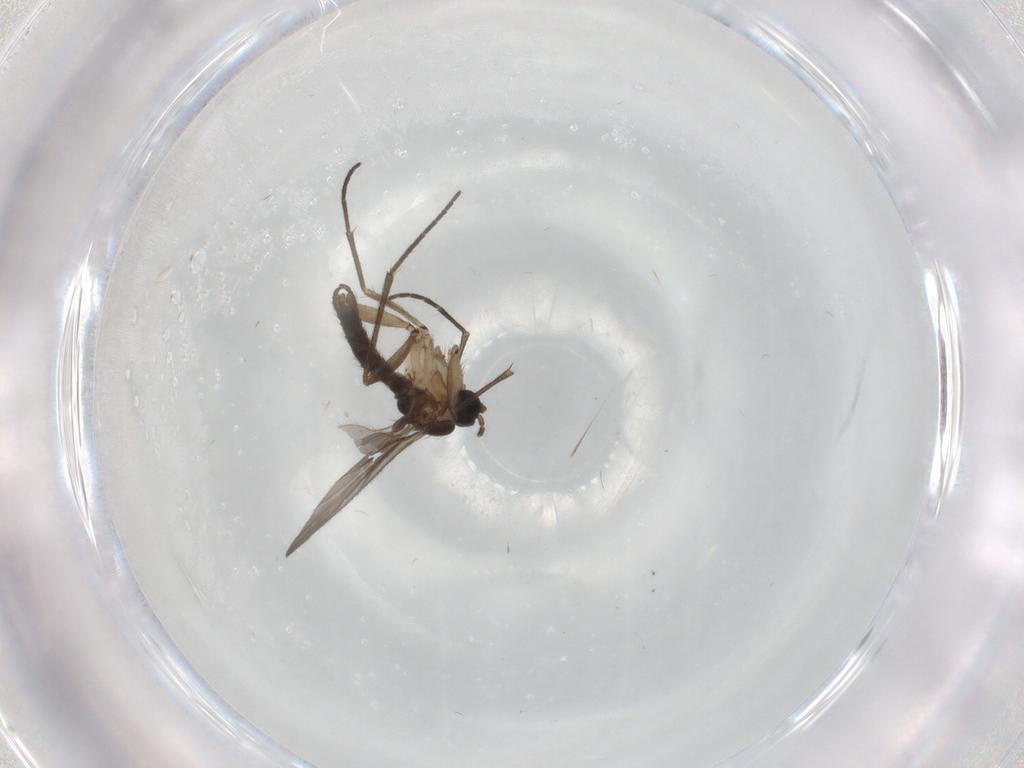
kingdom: Animalia
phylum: Arthropoda
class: Insecta
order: Diptera
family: Sciaridae
